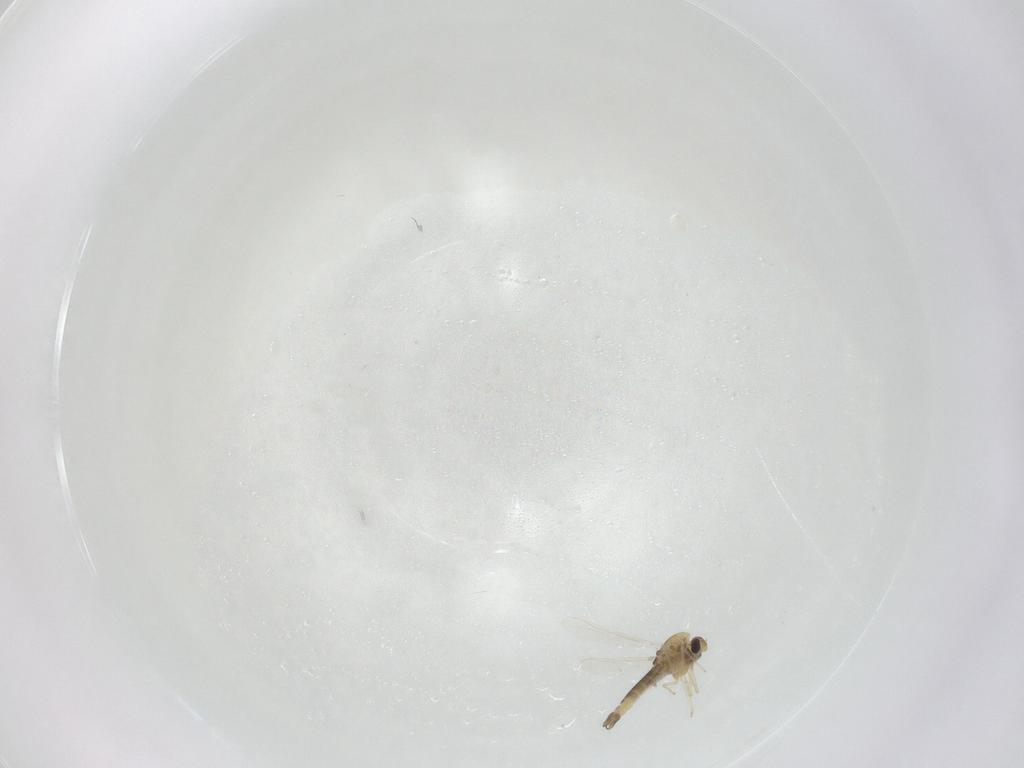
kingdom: Animalia
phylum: Arthropoda
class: Insecta
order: Diptera
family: Chironomidae
